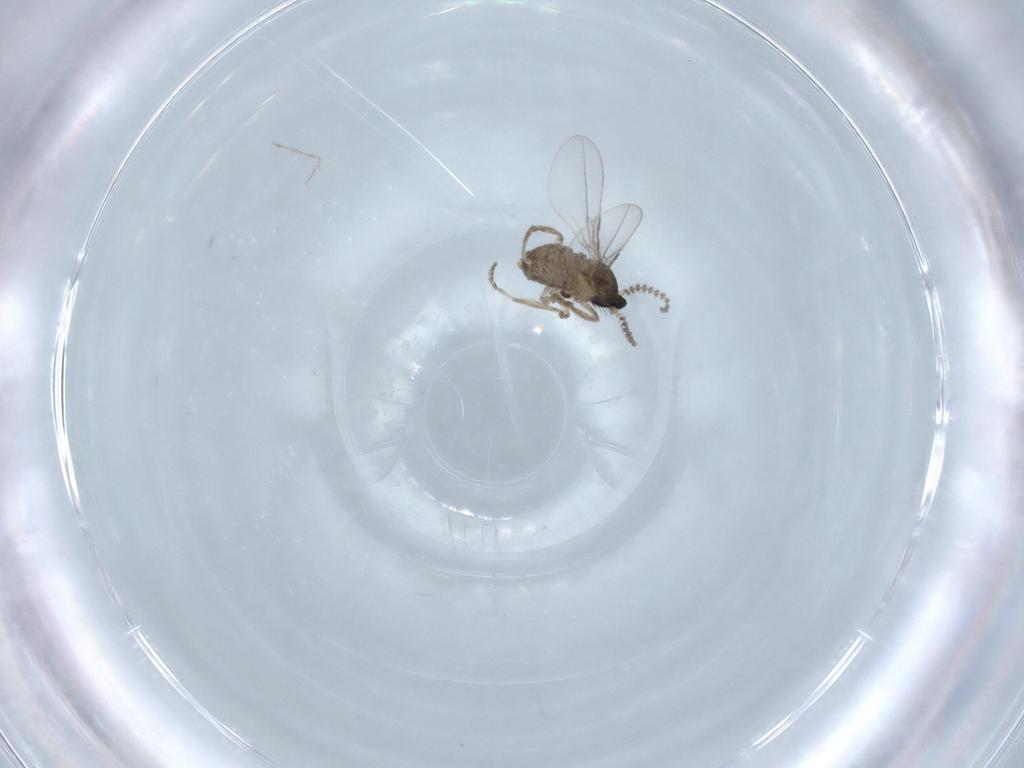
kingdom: Animalia
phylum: Arthropoda
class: Insecta
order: Diptera
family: Cecidomyiidae
